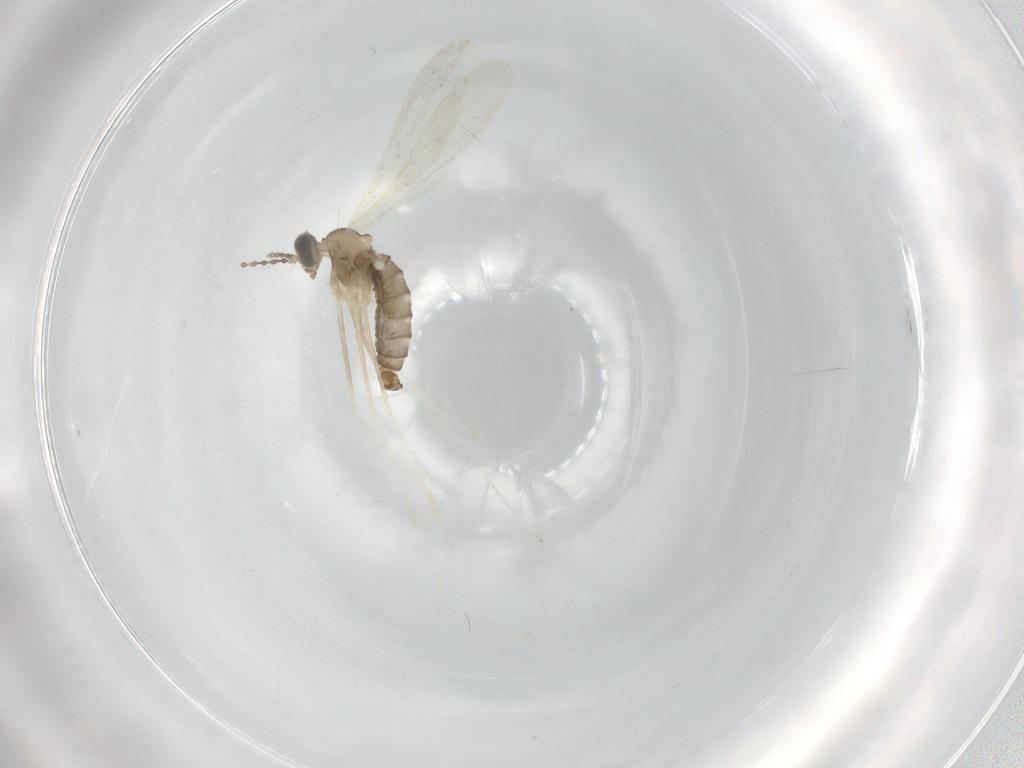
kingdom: Animalia
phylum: Arthropoda
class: Insecta
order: Diptera
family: Cecidomyiidae
